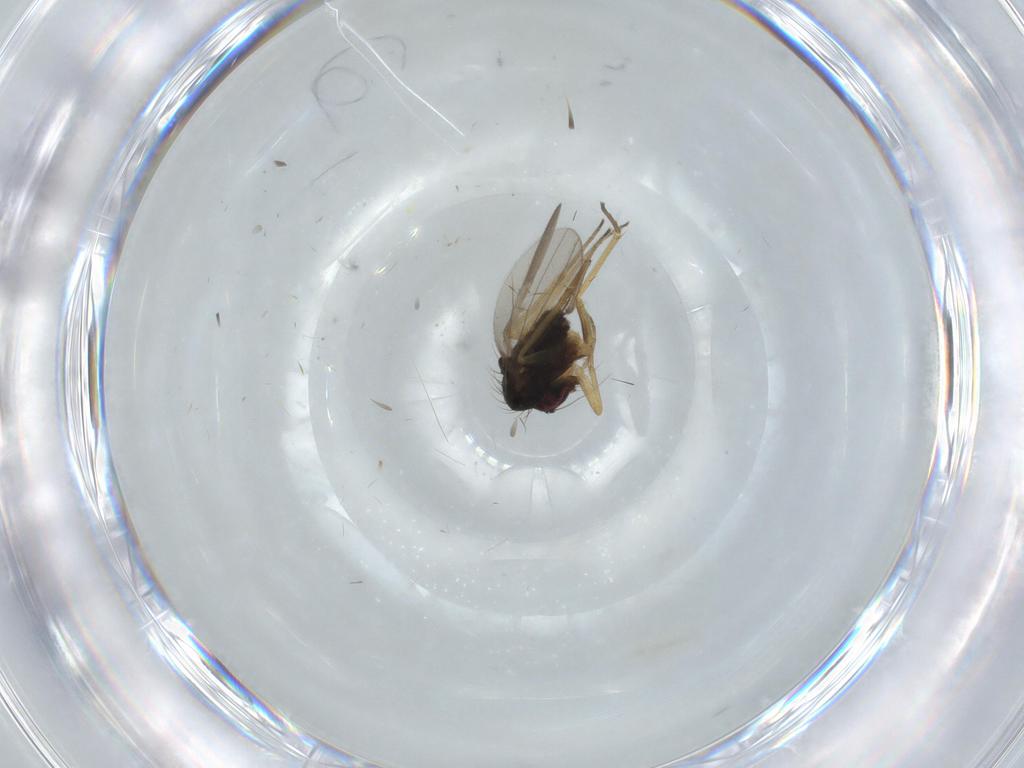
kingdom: Animalia
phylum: Arthropoda
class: Insecta
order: Diptera
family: Dolichopodidae
